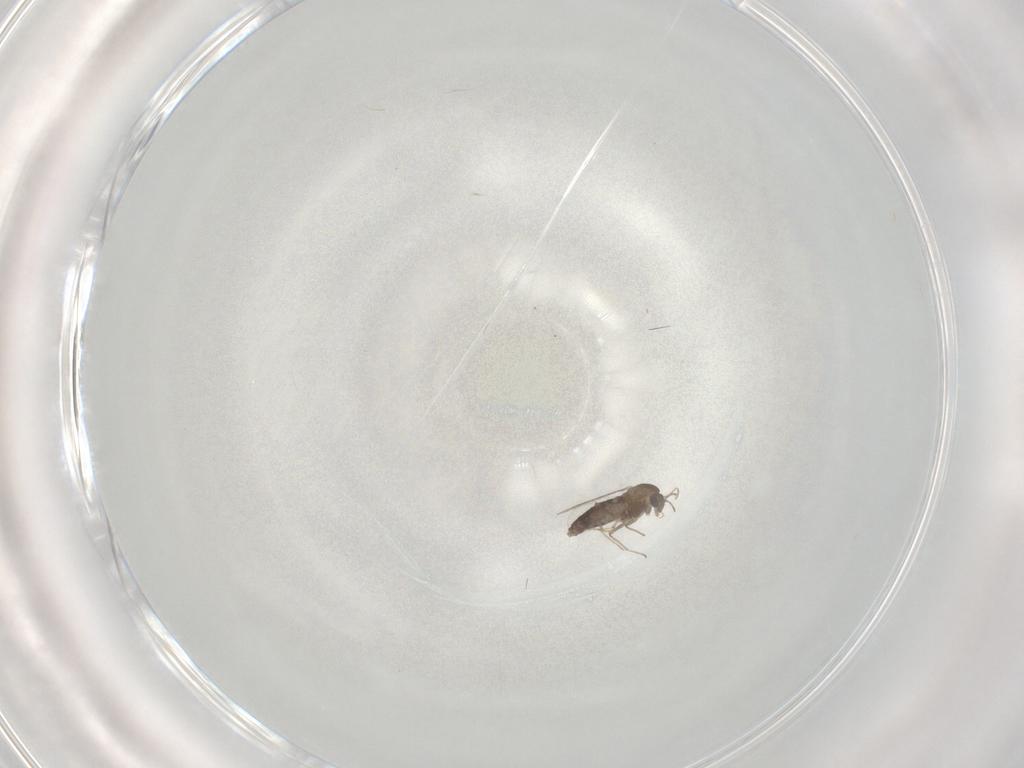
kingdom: Animalia
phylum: Arthropoda
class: Insecta
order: Diptera
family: Chironomidae
